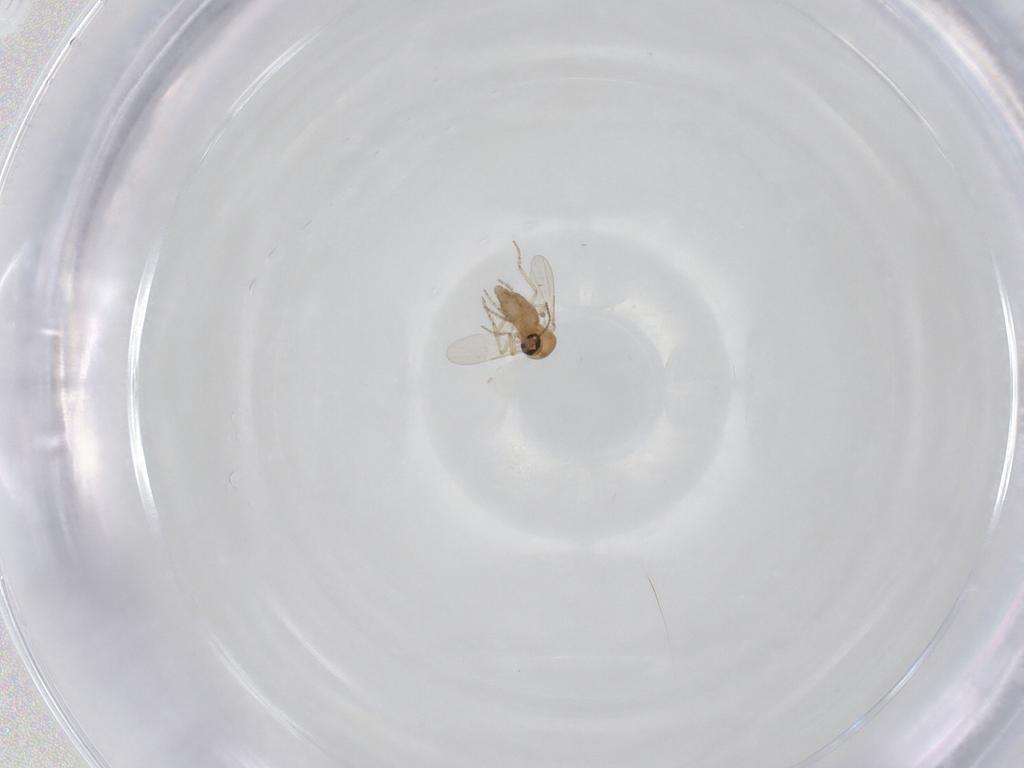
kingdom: Animalia
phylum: Arthropoda
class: Insecta
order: Diptera
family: Ceratopogonidae
